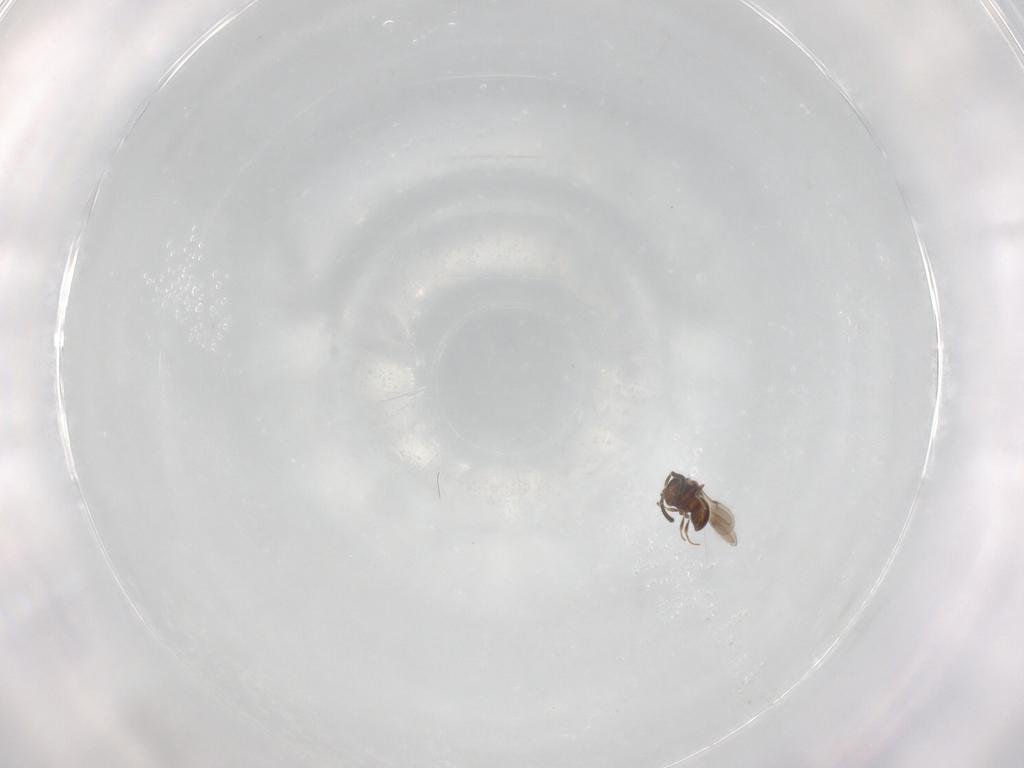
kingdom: Animalia
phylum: Arthropoda
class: Insecta
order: Hymenoptera
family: Scelionidae
